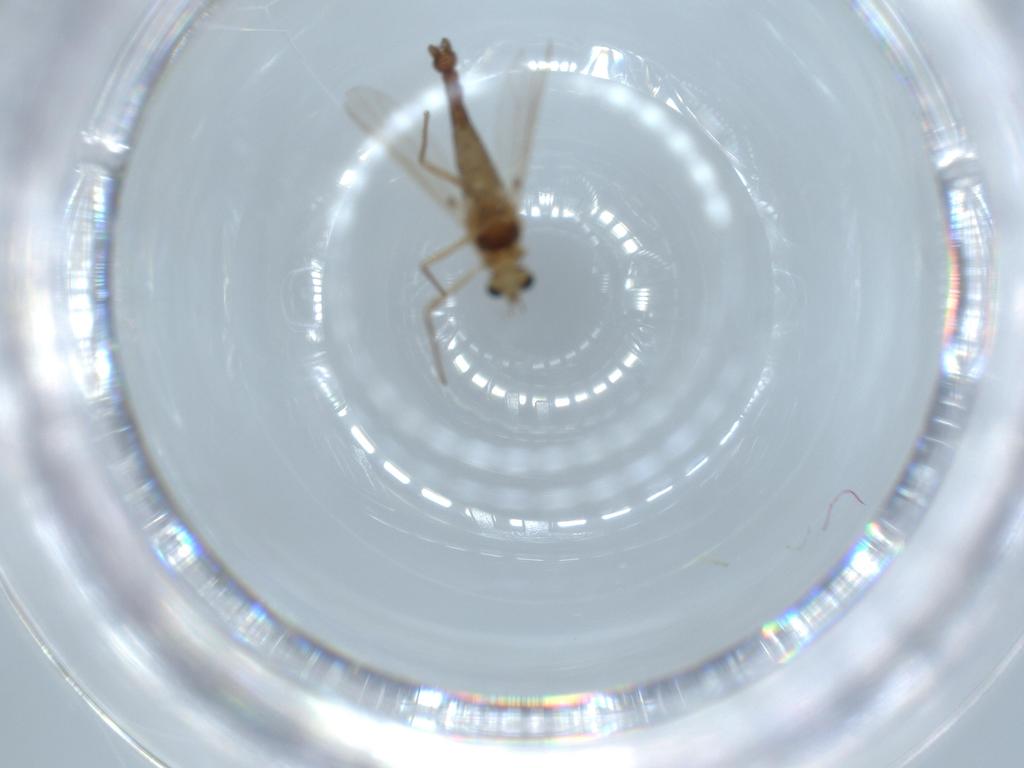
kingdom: Animalia
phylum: Arthropoda
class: Insecta
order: Diptera
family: Chironomidae
